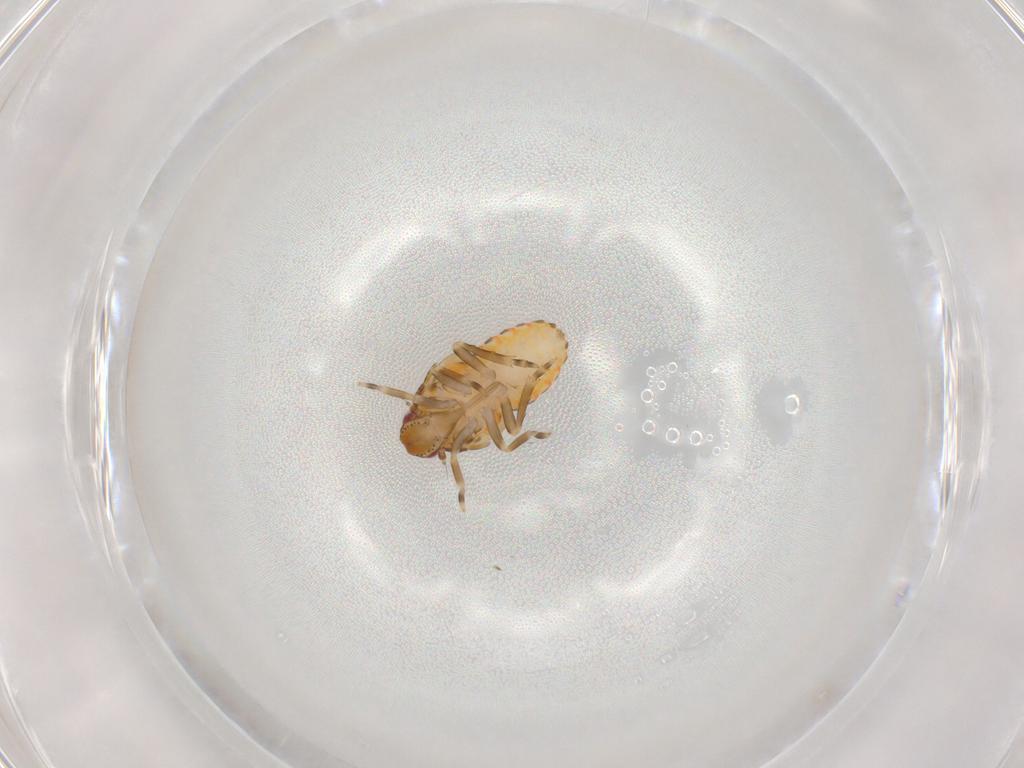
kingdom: Animalia
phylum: Arthropoda
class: Insecta
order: Hemiptera
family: Flatidae
